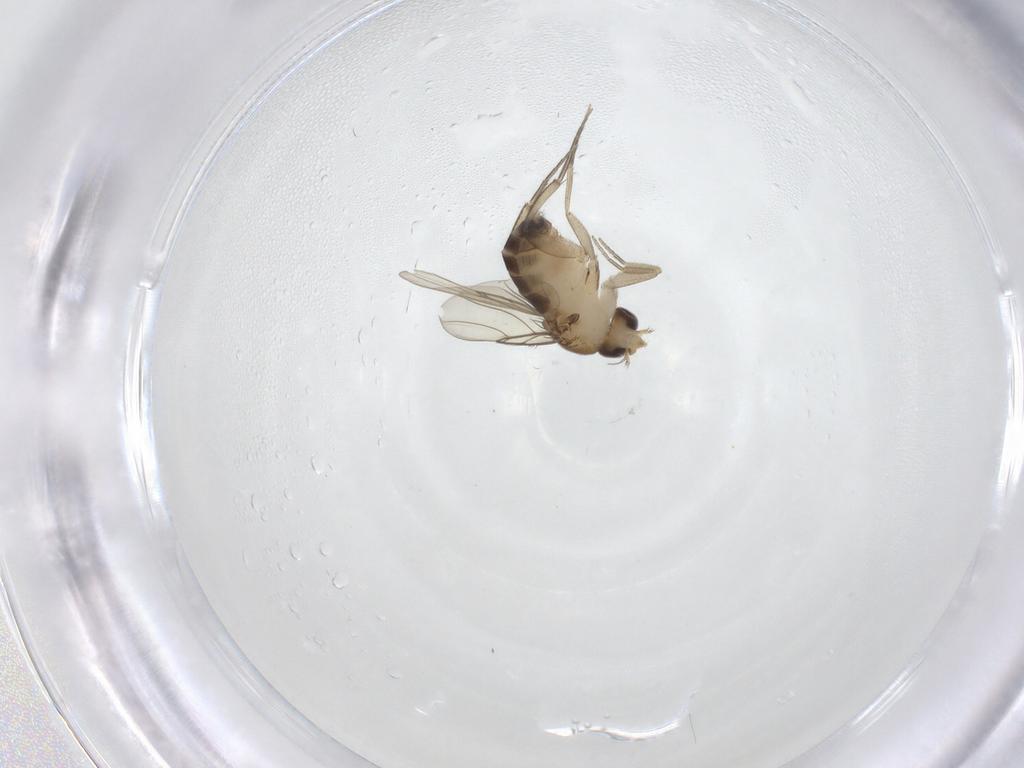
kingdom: Animalia
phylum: Arthropoda
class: Insecta
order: Diptera
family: Phoridae
